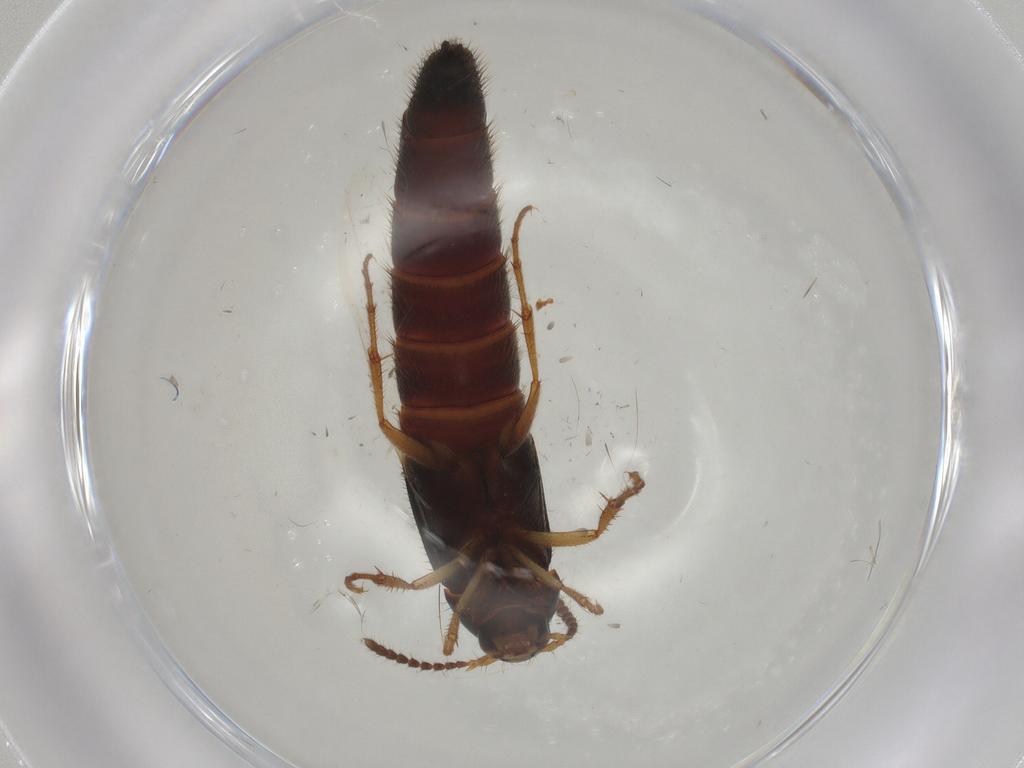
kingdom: Animalia
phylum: Arthropoda
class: Insecta
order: Coleoptera
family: Staphylinidae
